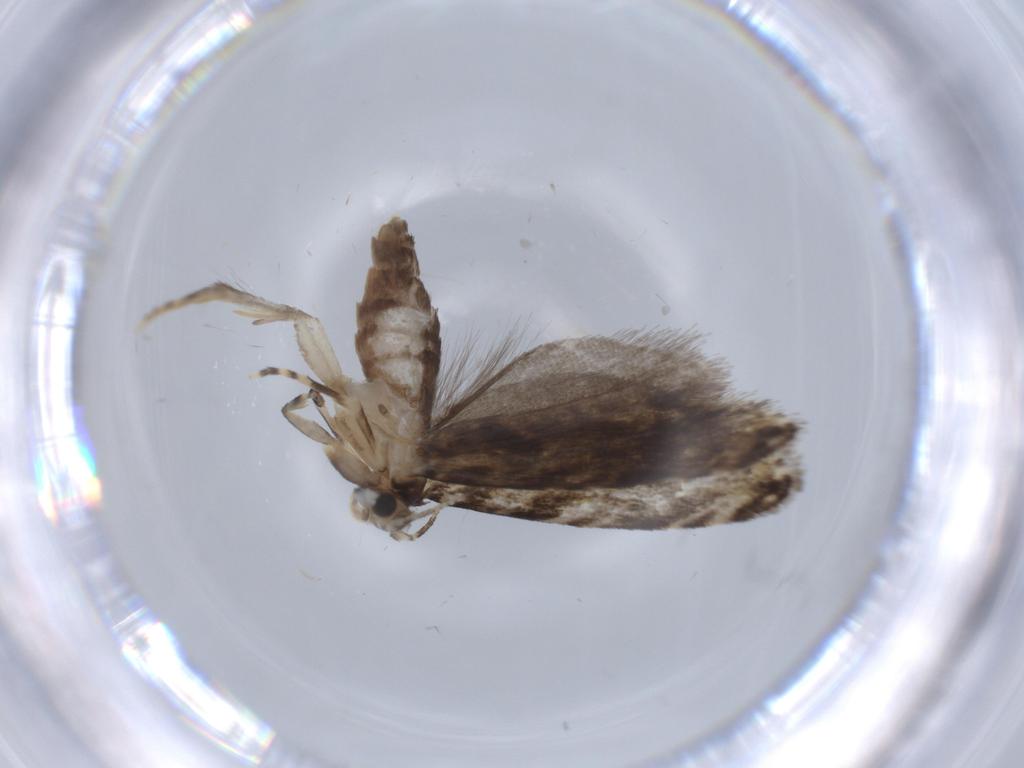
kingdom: Animalia
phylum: Arthropoda
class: Insecta
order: Lepidoptera
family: Tineidae
